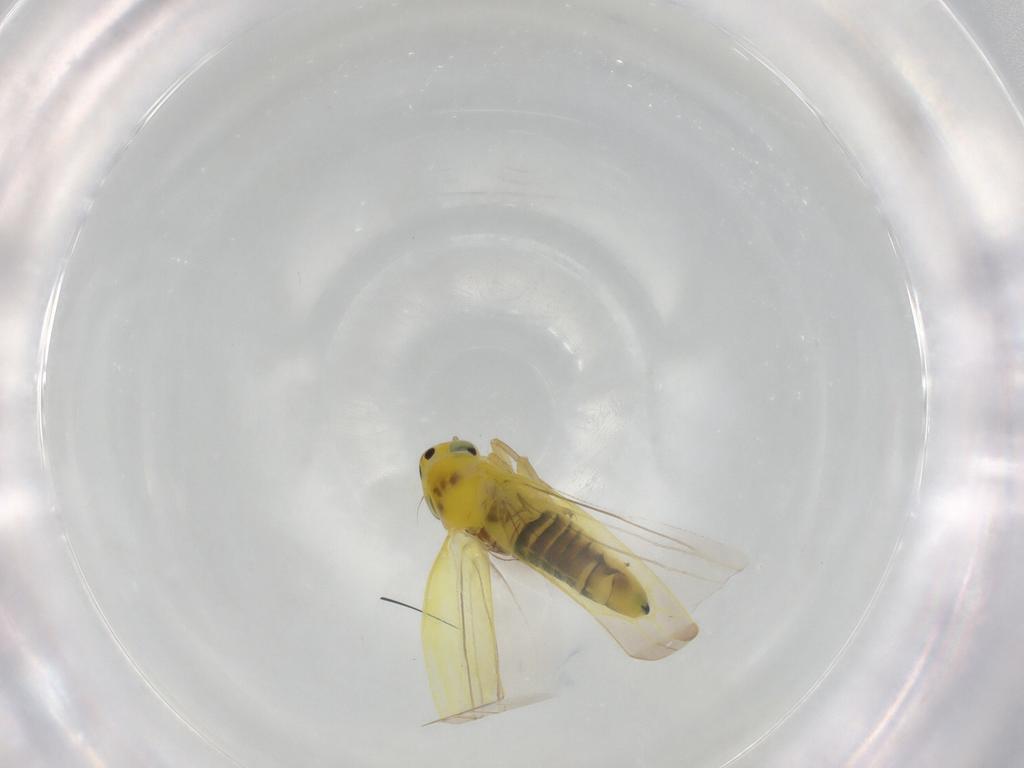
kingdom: Animalia
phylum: Arthropoda
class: Insecta
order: Hemiptera
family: Cicadellidae
